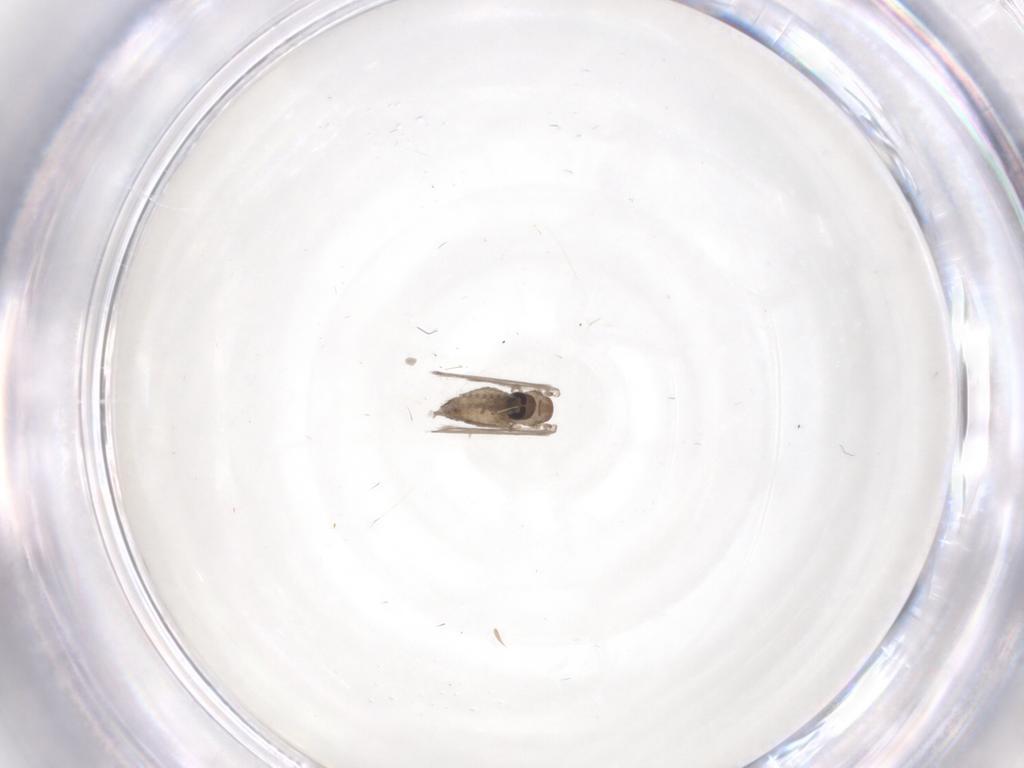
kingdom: Animalia
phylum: Arthropoda
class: Insecta
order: Diptera
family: Psychodidae
